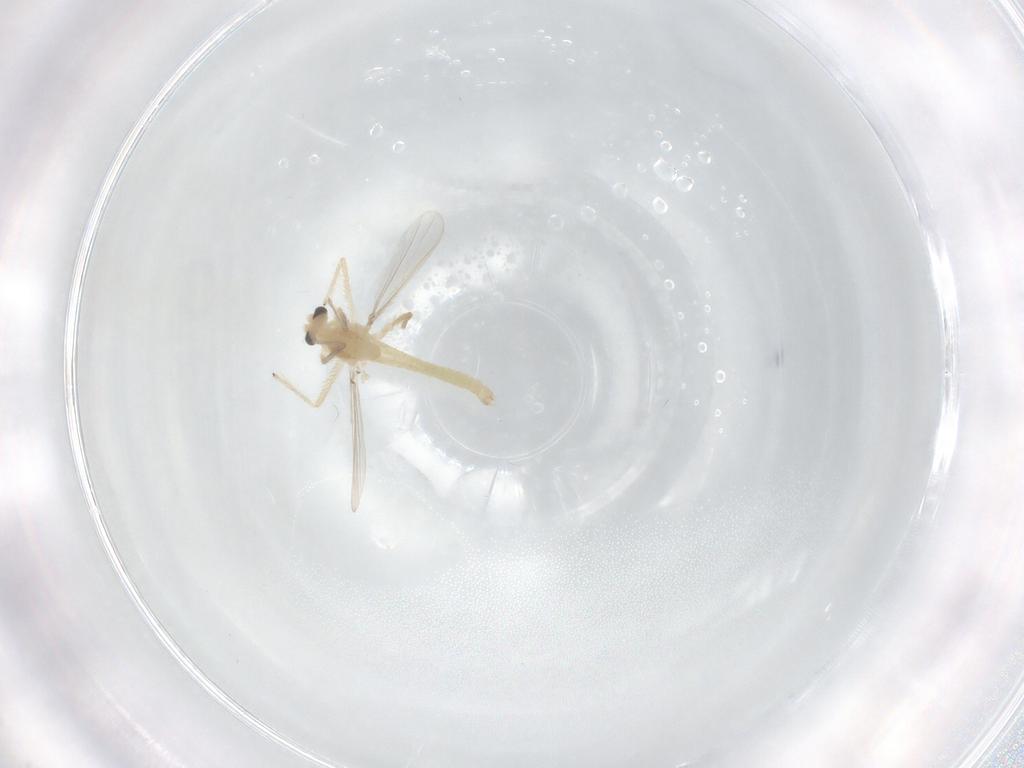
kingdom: Animalia
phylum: Arthropoda
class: Insecta
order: Diptera
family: Chironomidae
